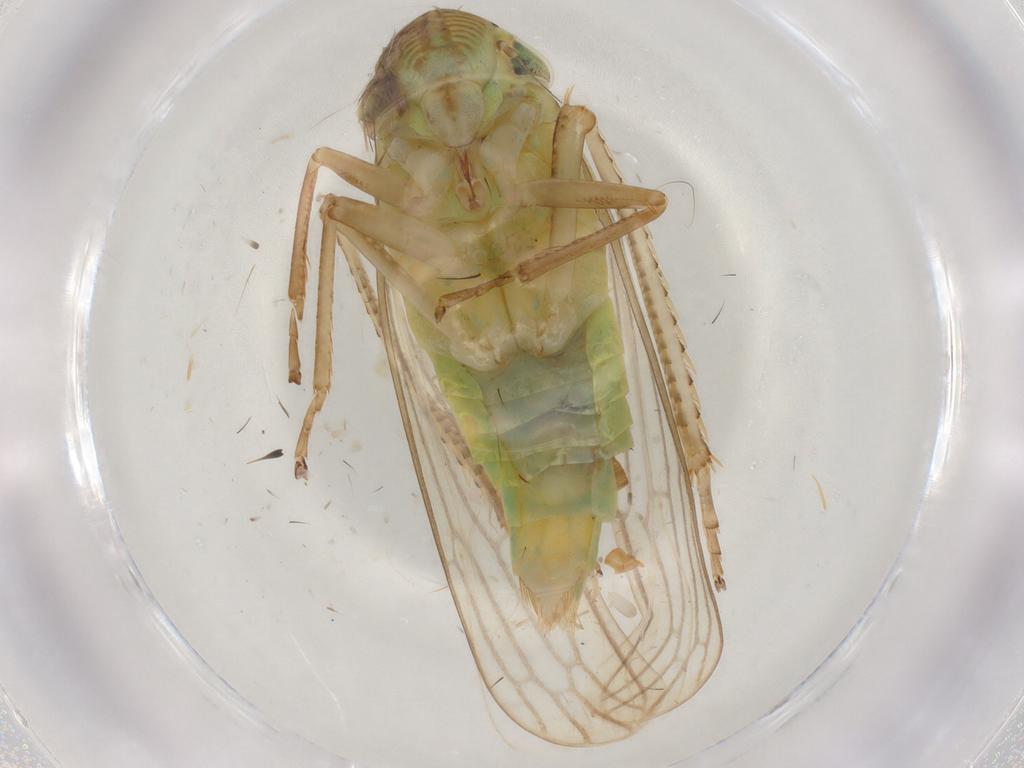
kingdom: Animalia
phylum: Arthropoda
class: Insecta
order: Hemiptera
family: Cicadellidae
